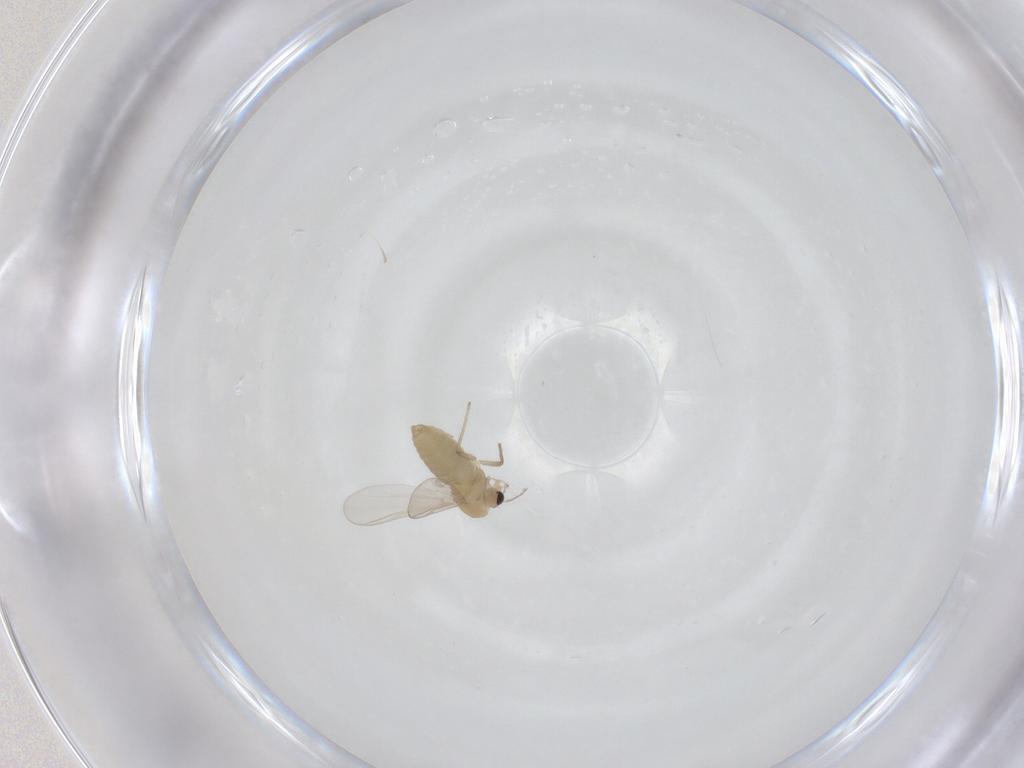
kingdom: Animalia
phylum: Arthropoda
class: Insecta
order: Diptera
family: Chironomidae
